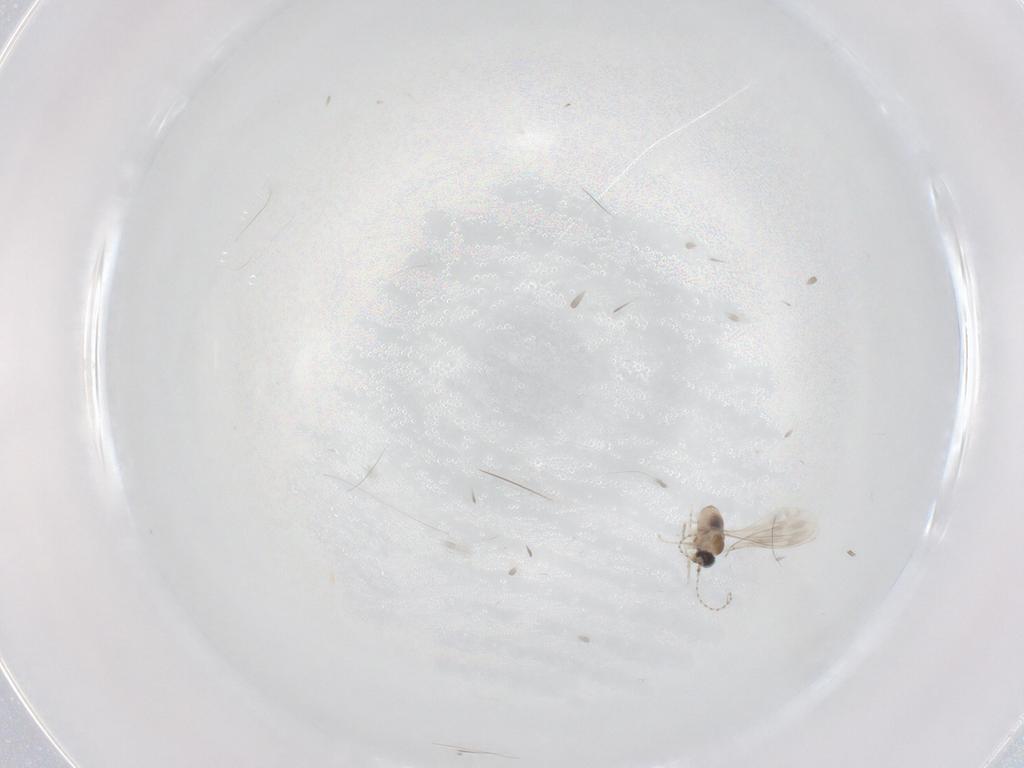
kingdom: Animalia
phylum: Arthropoda
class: Insecta
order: Diptera
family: Cecidomyiidae
